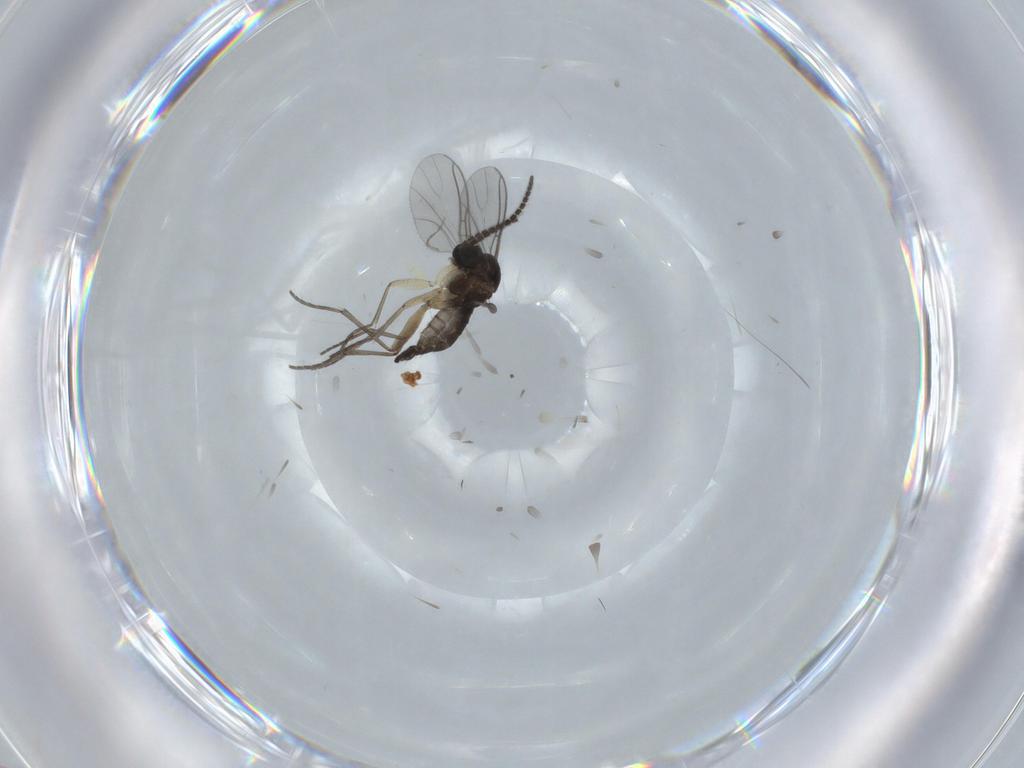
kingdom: Animalia
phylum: Arthropoda
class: Insecta
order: Diptera
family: Sciaridae
